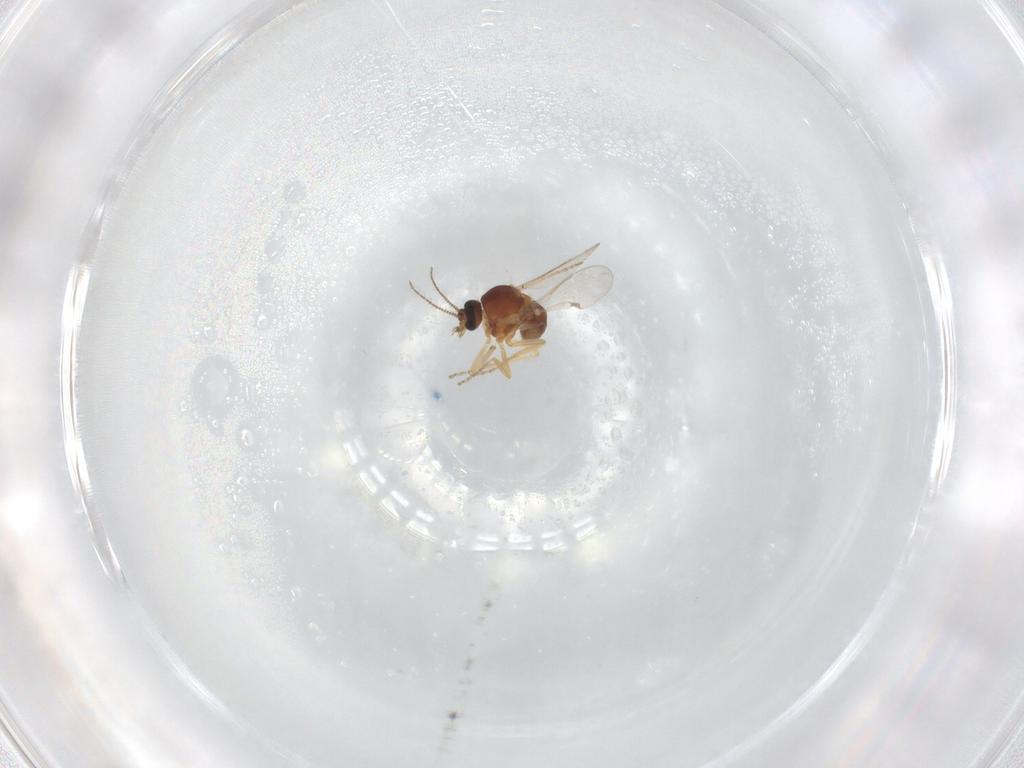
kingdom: Animalia
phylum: Arthropoda
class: Insecta
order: Diptera
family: Ceratopogonidae
